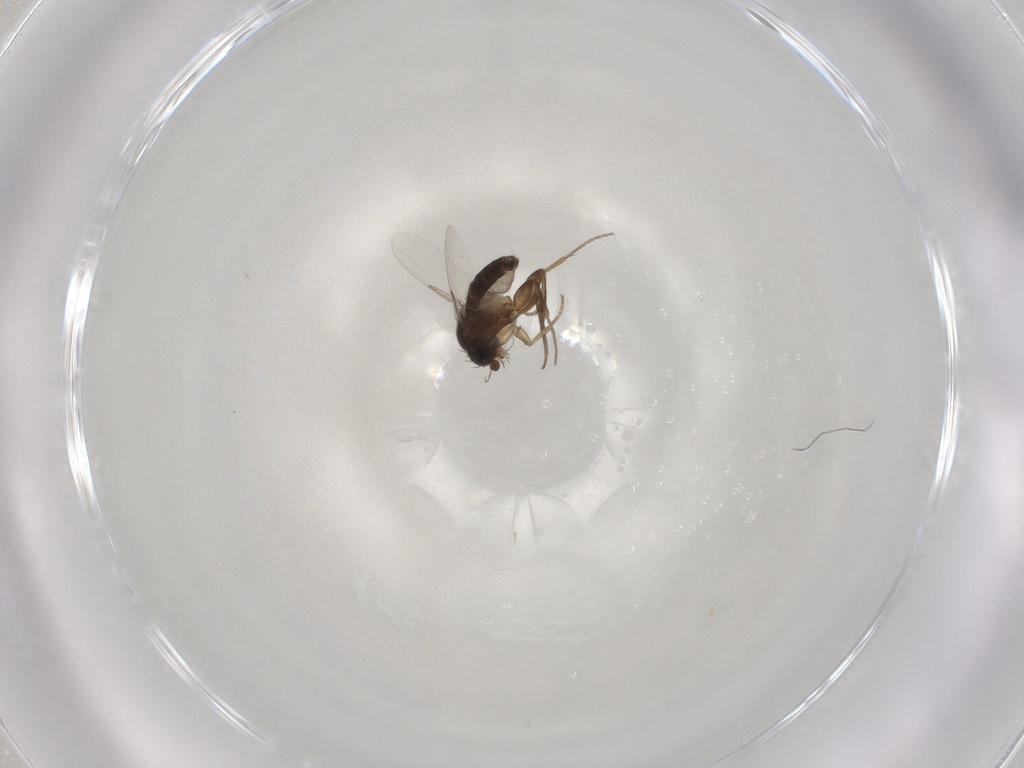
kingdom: Animalia
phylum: Arthropoda
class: Insecta
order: Diptera
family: Phoridae
